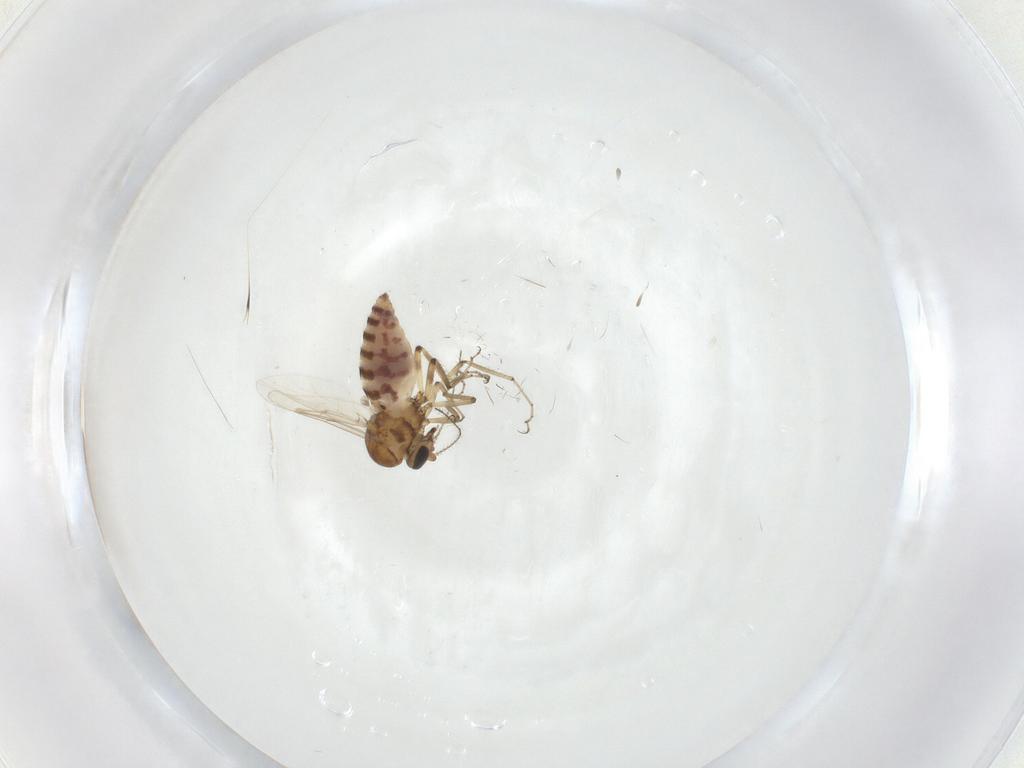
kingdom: Animalia
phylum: Arthropoda
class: Insecta
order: Diptera
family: Ceratopogonidae
